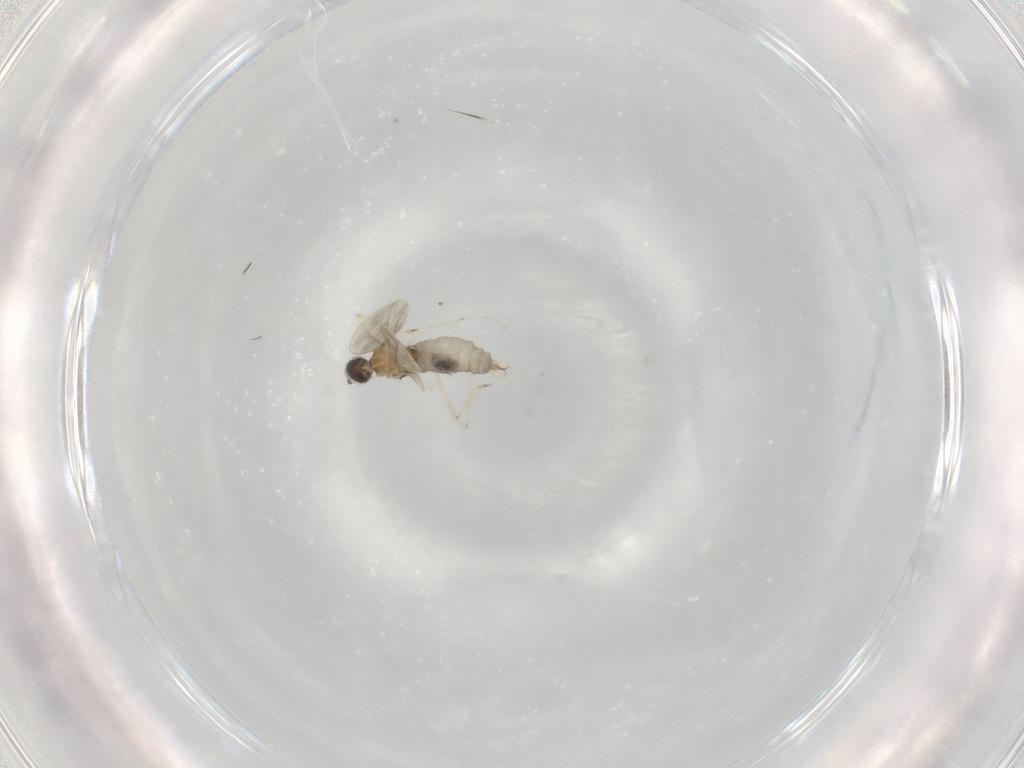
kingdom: Animalia
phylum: Arthropoda
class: Insecta
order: Diptera
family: Cecidomyiidae
